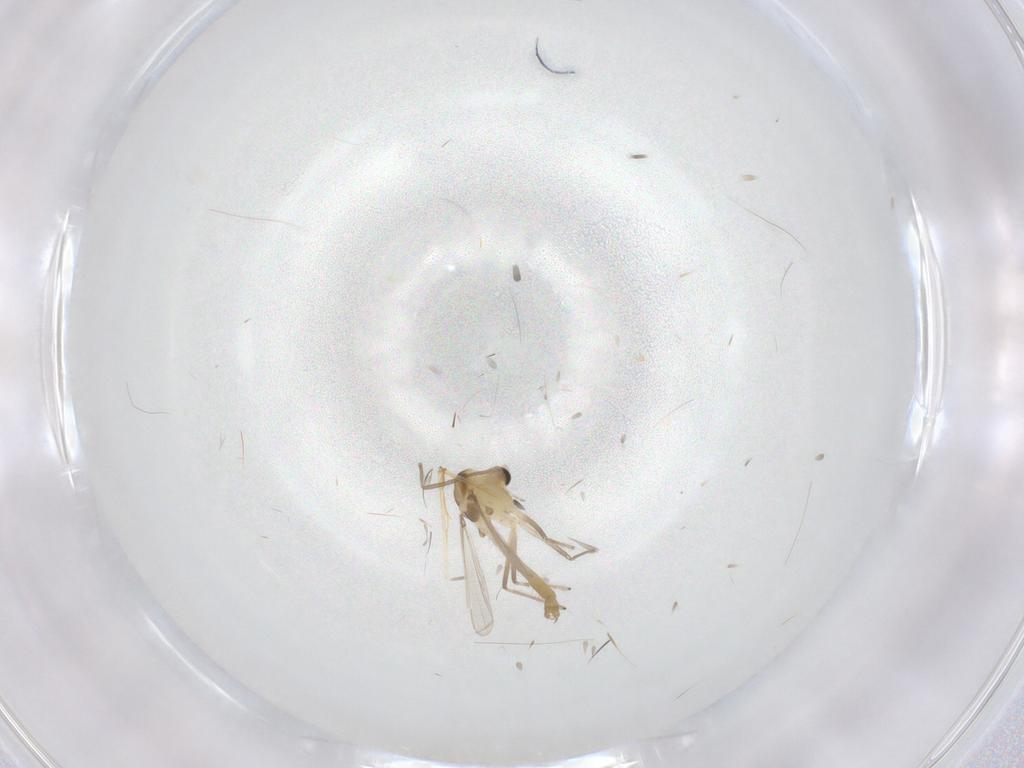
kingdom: Animalia
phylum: Arthropoda
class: Insecta
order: Diptera
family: Chironomidae
